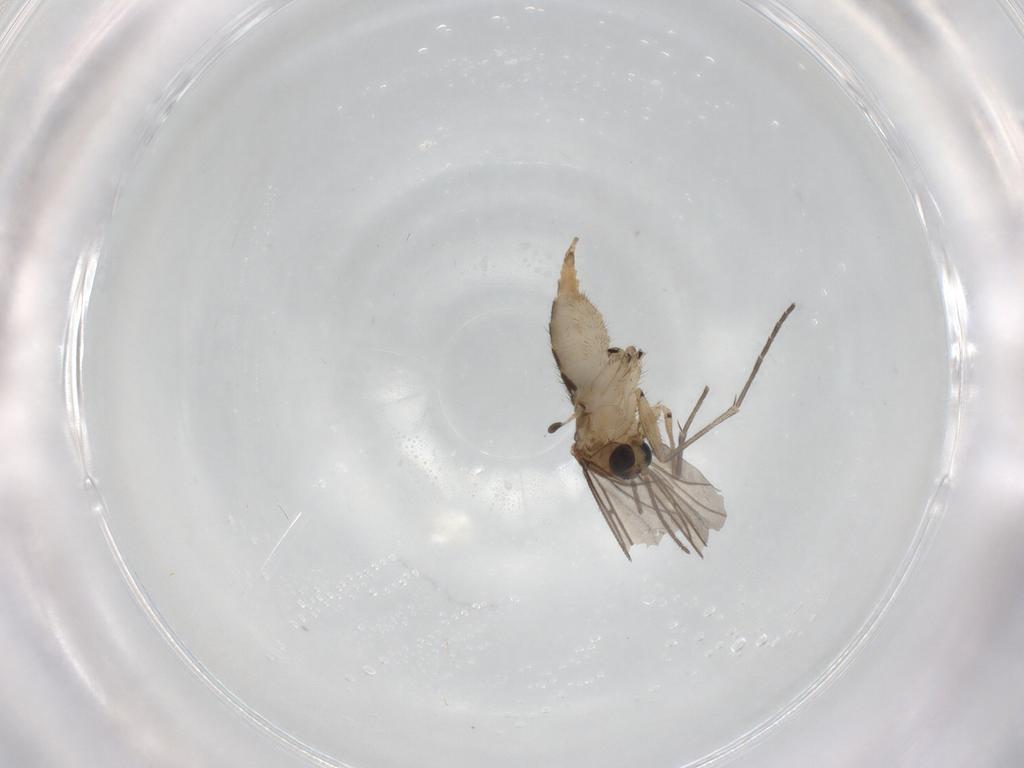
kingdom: Animalia
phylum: Arthropoda
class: Insecta
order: Diptera
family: Sciaridae
